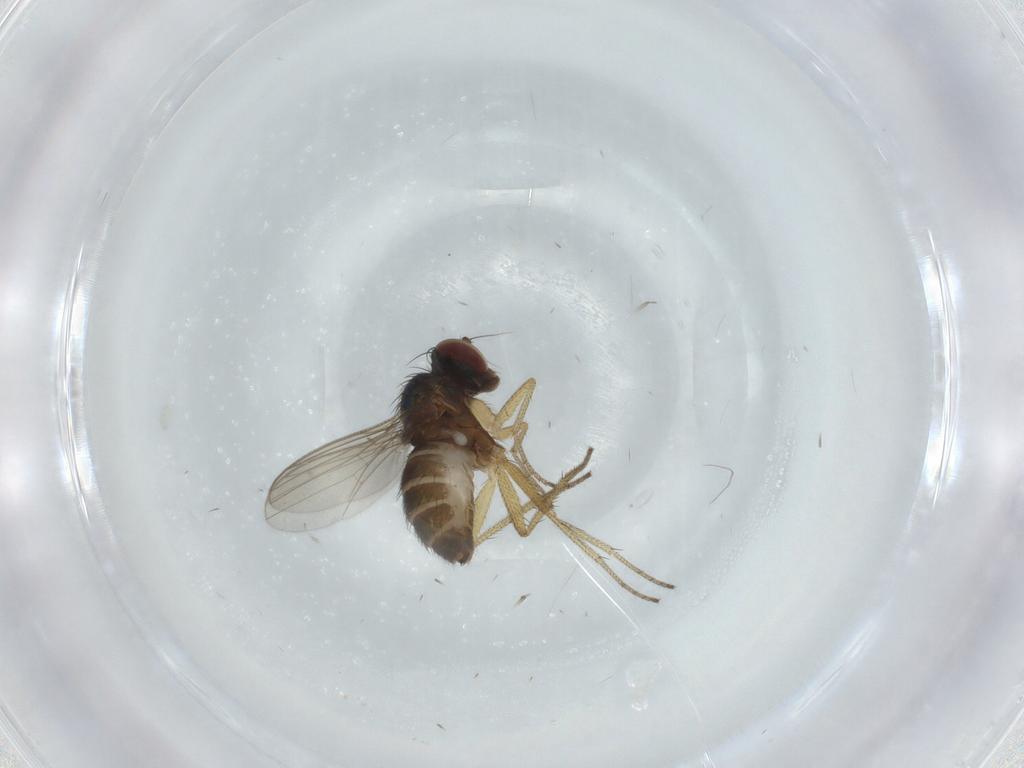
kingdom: Animalia
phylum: Arthropoda
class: Insecta
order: Diptera
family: Dolichopodidae
